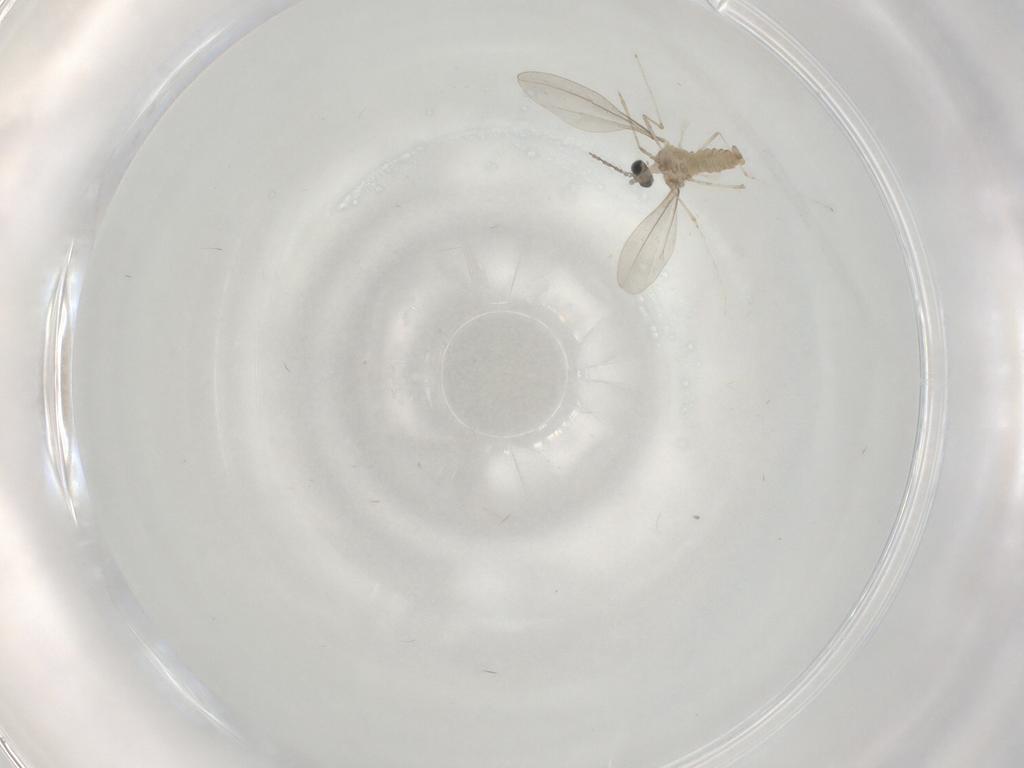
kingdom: Animalia
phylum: Arthropoda
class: Insecta
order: Diptera
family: Cecidomyiidae
